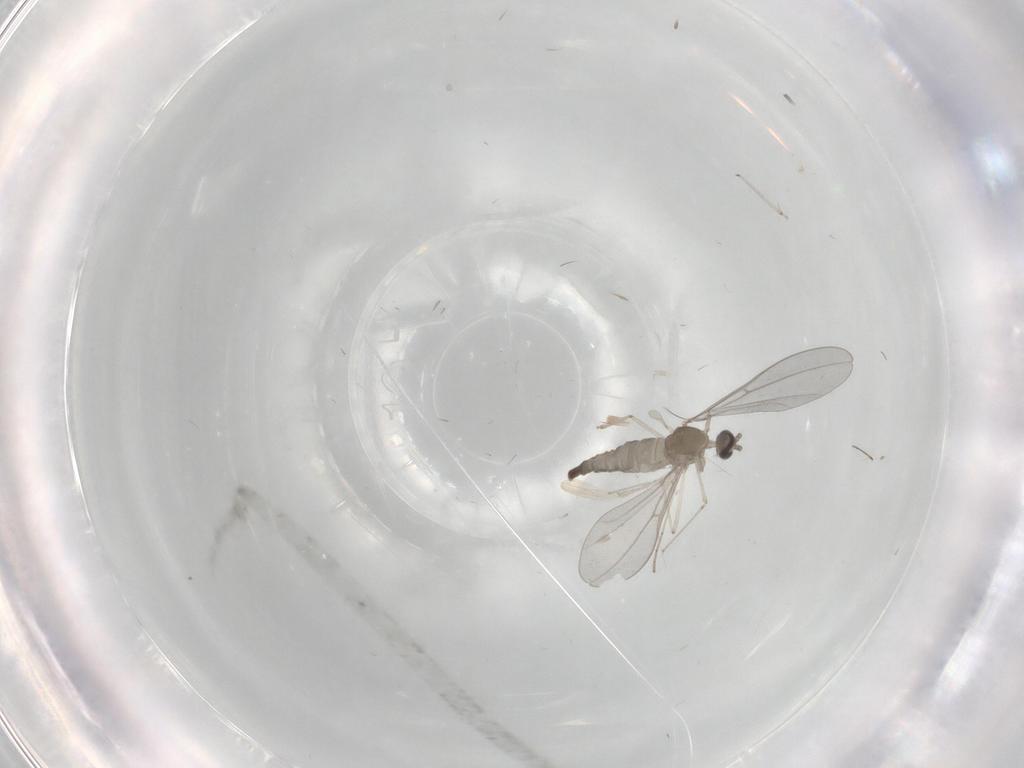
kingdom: Animalia
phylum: Arthropoda
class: Insecta
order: Diptera
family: Cecidomyiidae
